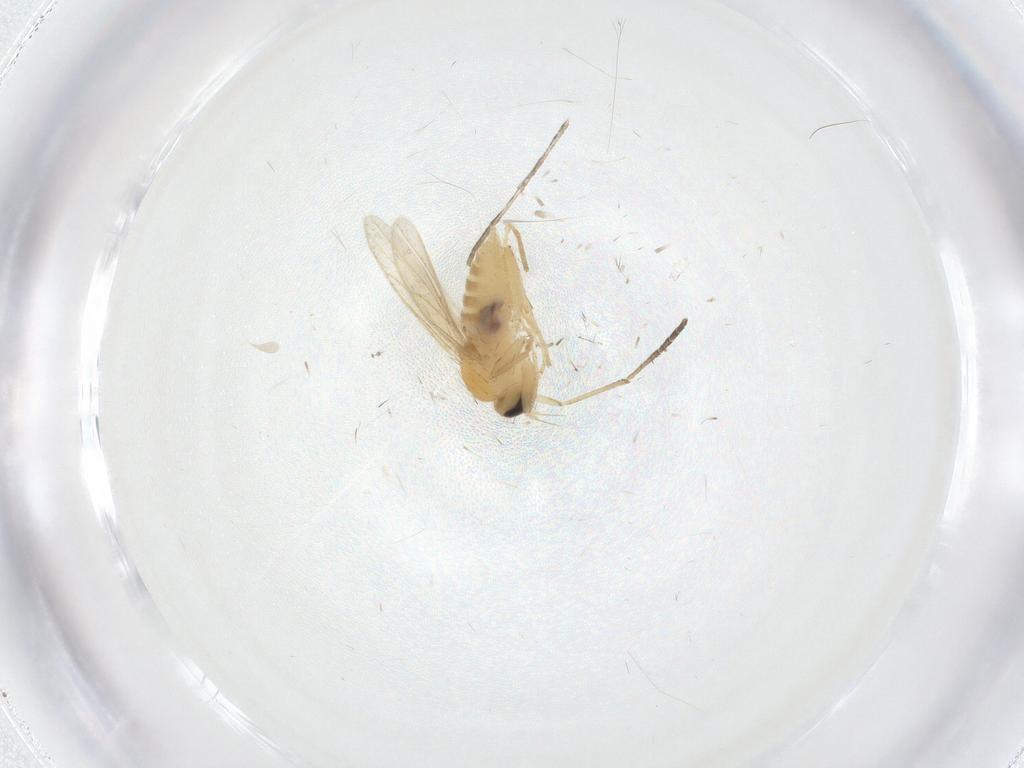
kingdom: Animalia
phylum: Arthropoda
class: Insecta
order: Diptera
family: Hybotidae
